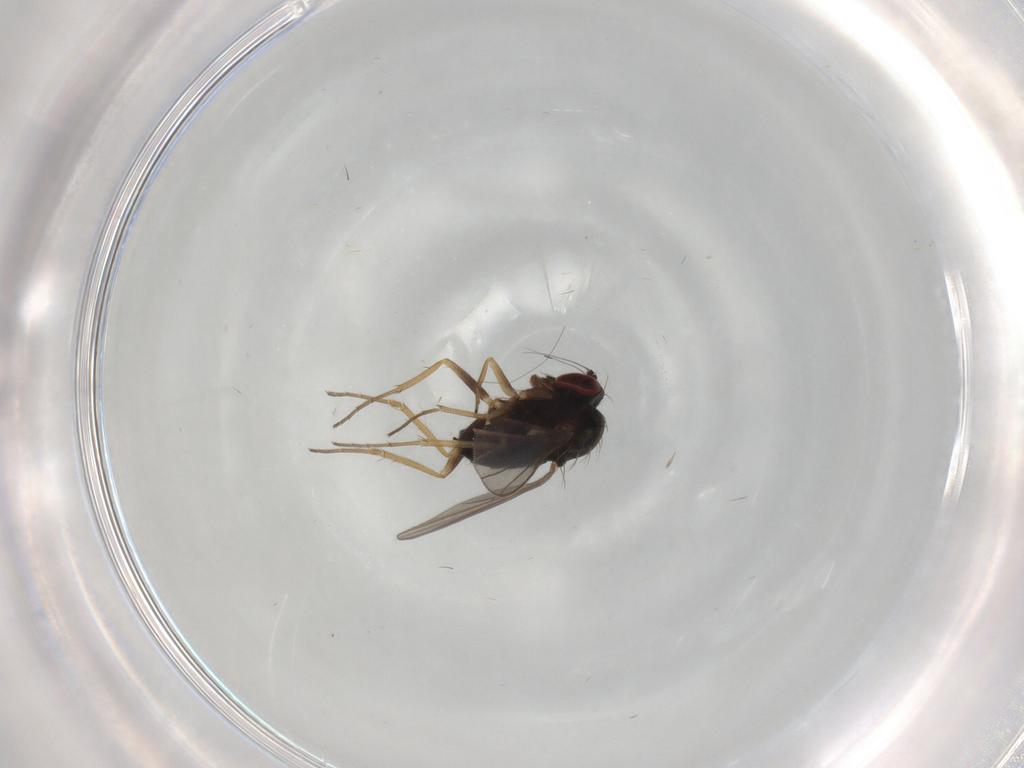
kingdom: Animalia
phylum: Arthropoda
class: Insecta
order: Diptera
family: Dolichopodidae
